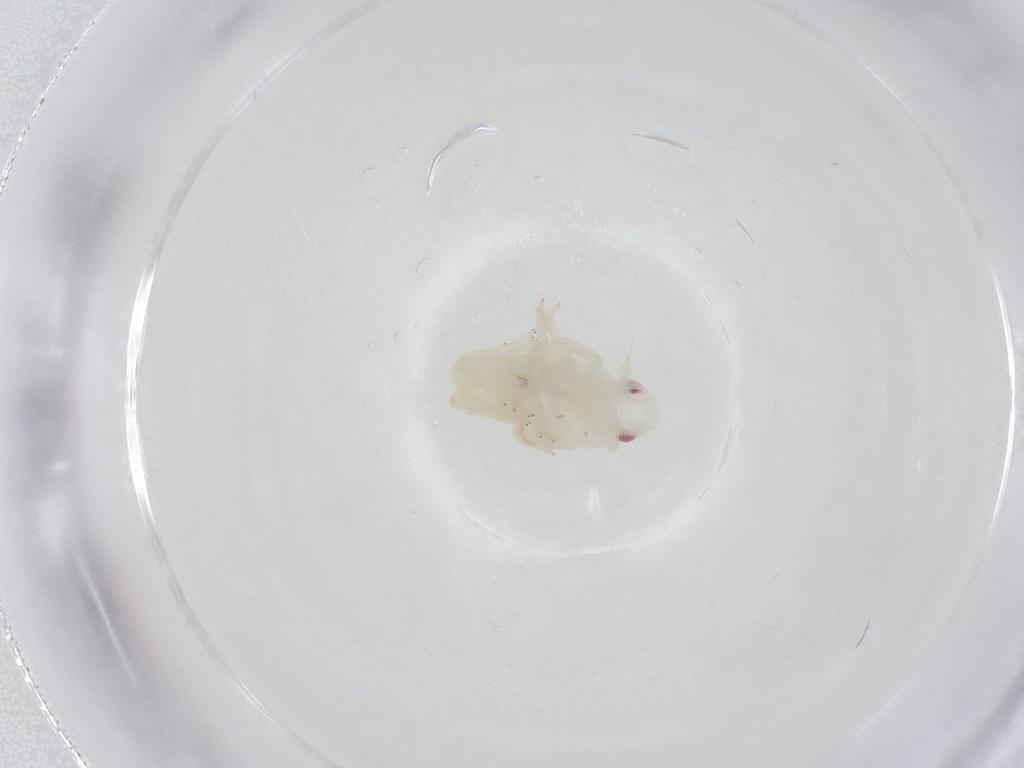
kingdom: Animalia
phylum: Arthropoda
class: Insecta
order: Hemiptera
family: Flatidae
